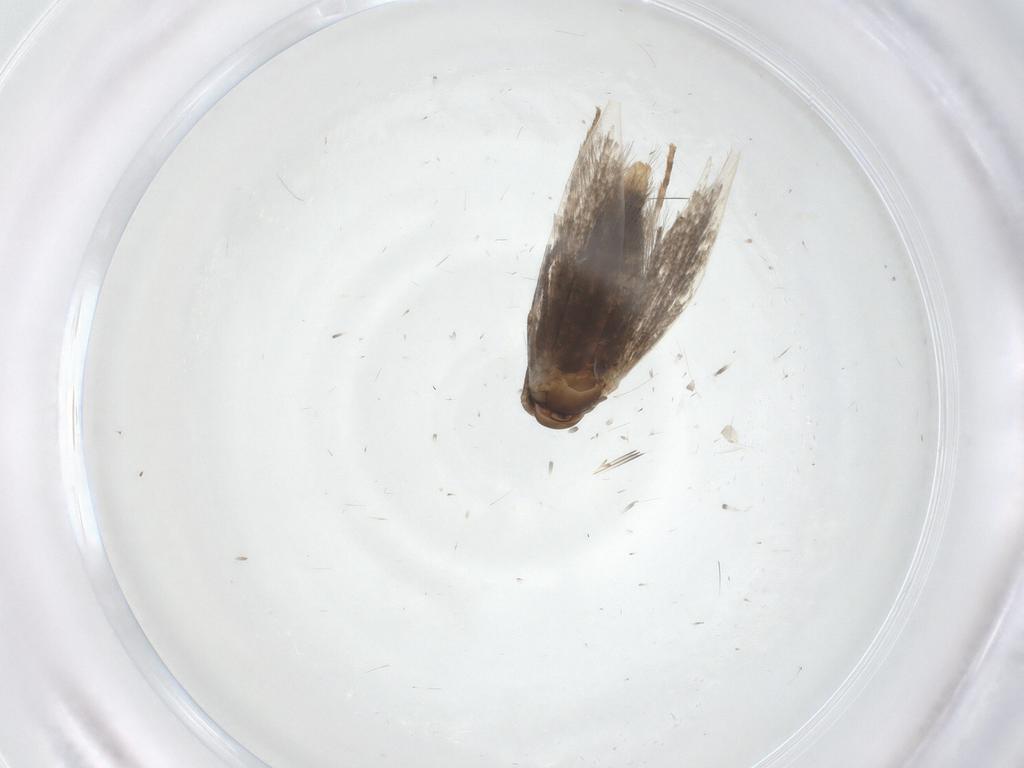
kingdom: Animalia
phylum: Arthropoda
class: Insecta
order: Lepidoptera
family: Elachistidae
